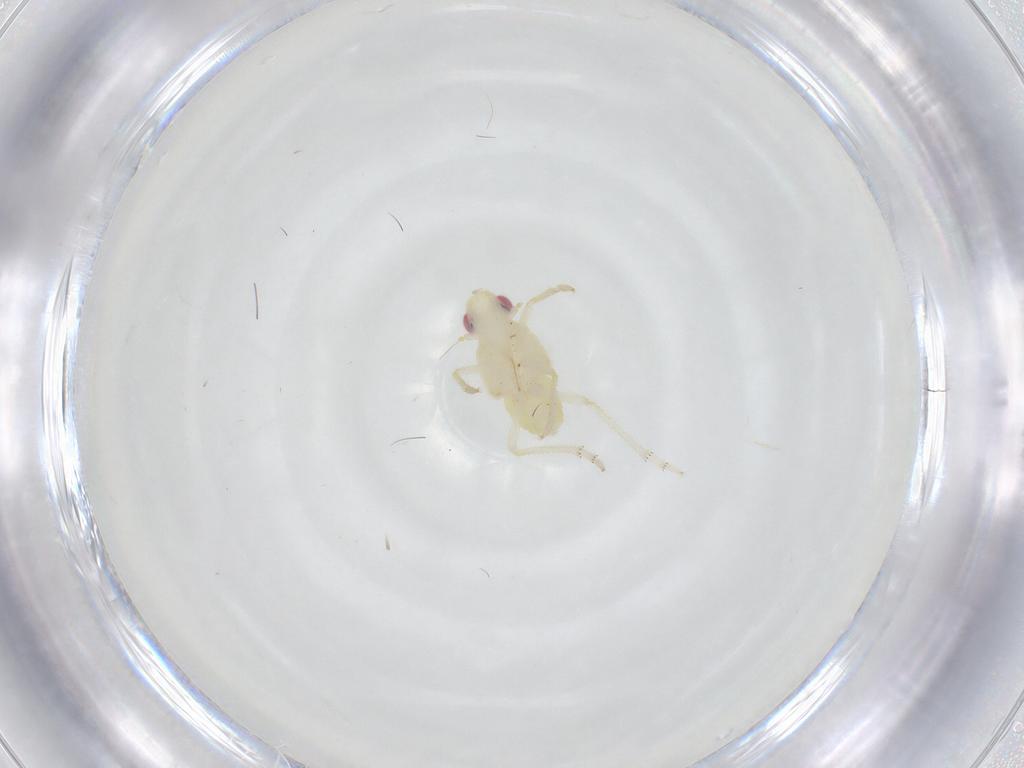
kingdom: Animalia
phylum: Arthropoda
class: Insecta
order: Hemiptera
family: Tropiduchidae
